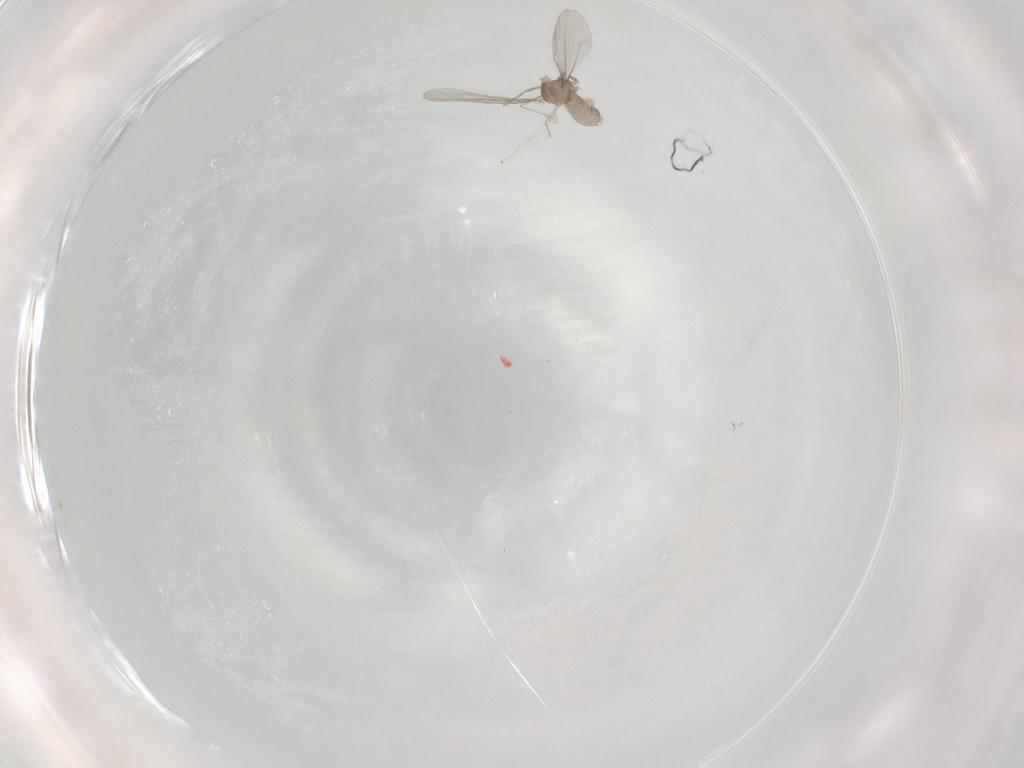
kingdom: Animalia
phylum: Arthropoda
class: Insecta
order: Diptera
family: Cecidomyiidae
